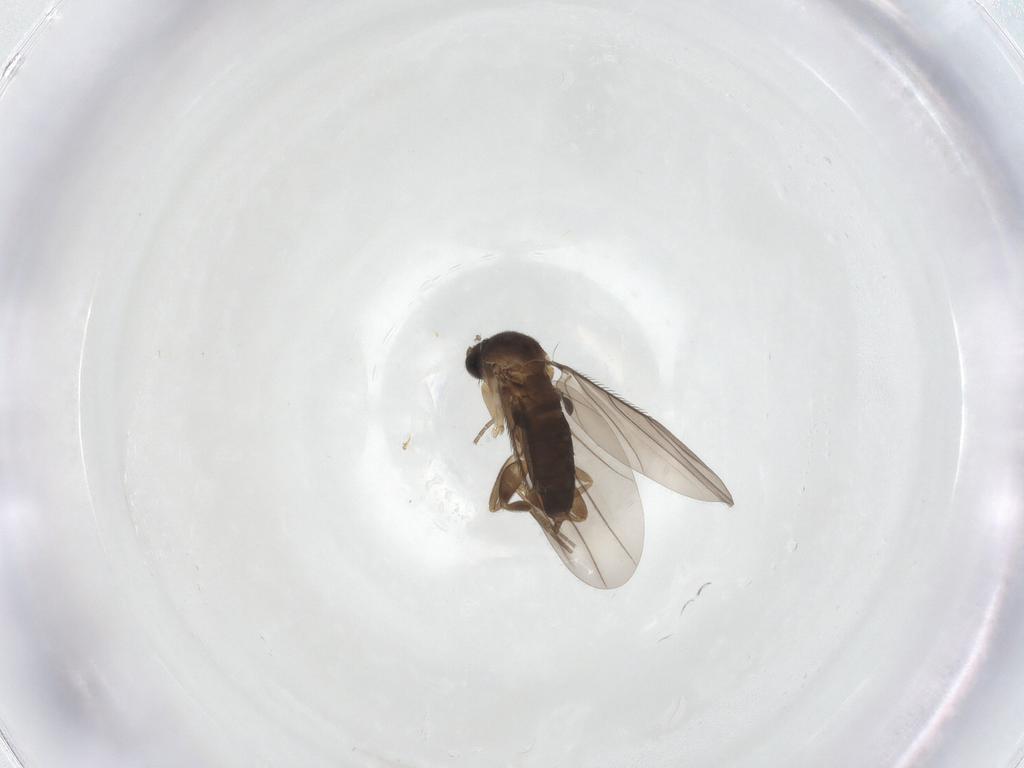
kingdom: Animalia
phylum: Arthropoda
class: Insecta
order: Diptera
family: Phoridae
